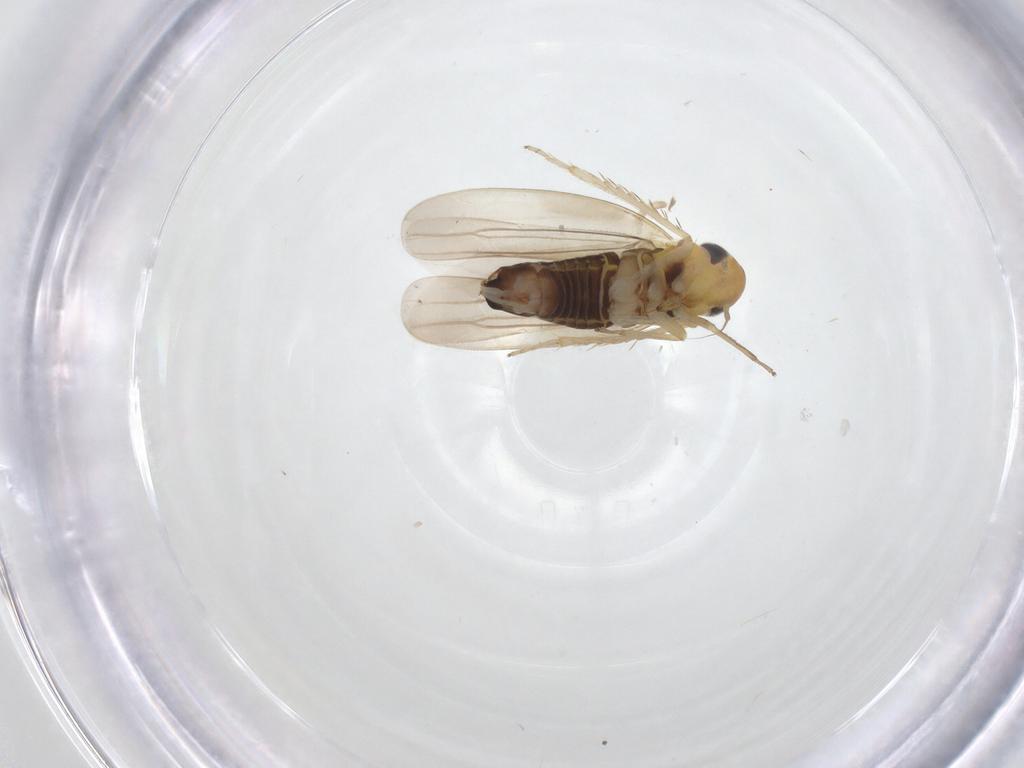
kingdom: Animalia
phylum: Arthropoda
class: Insecta
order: Hemiptera
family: Cicadellidae
